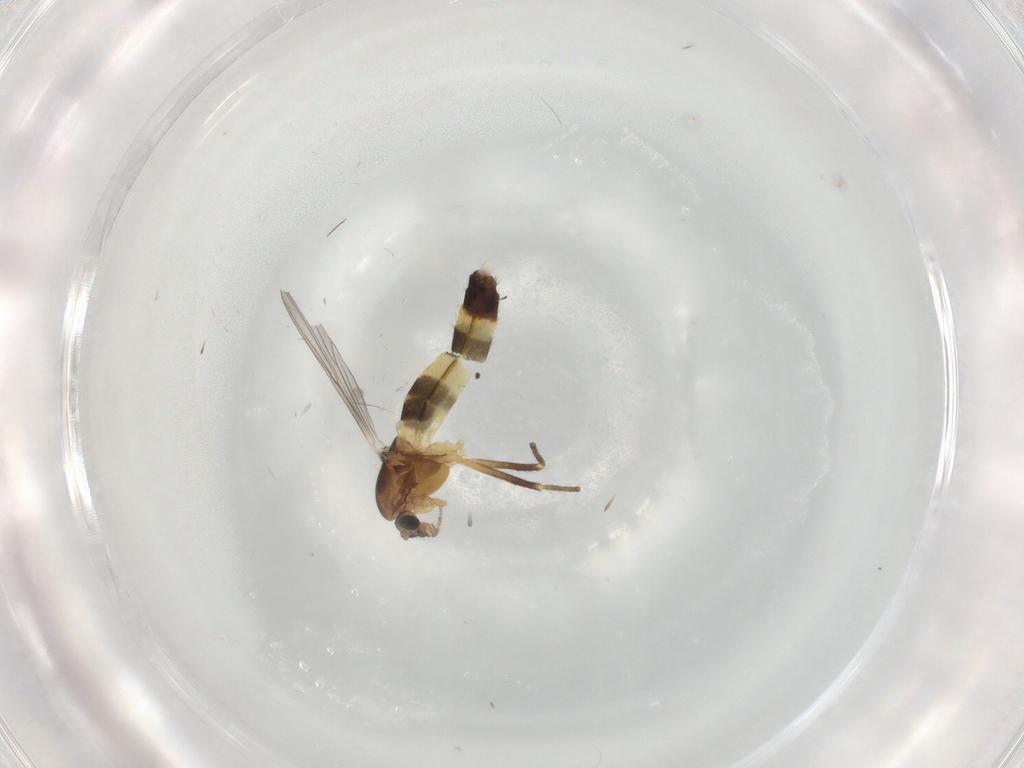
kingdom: Animalia
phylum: Arthropoda
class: Insecta
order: Diptera
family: Chironomidae
